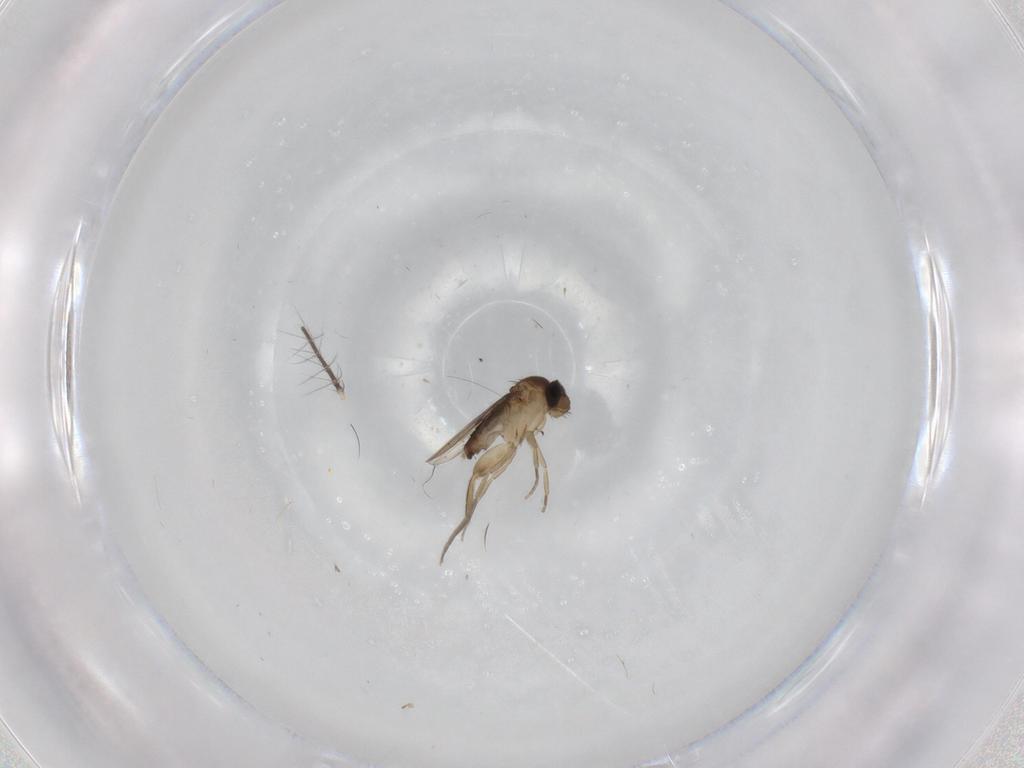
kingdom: Animalia
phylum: Arthropoda
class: Insecta
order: Diptera
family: Phoridae
